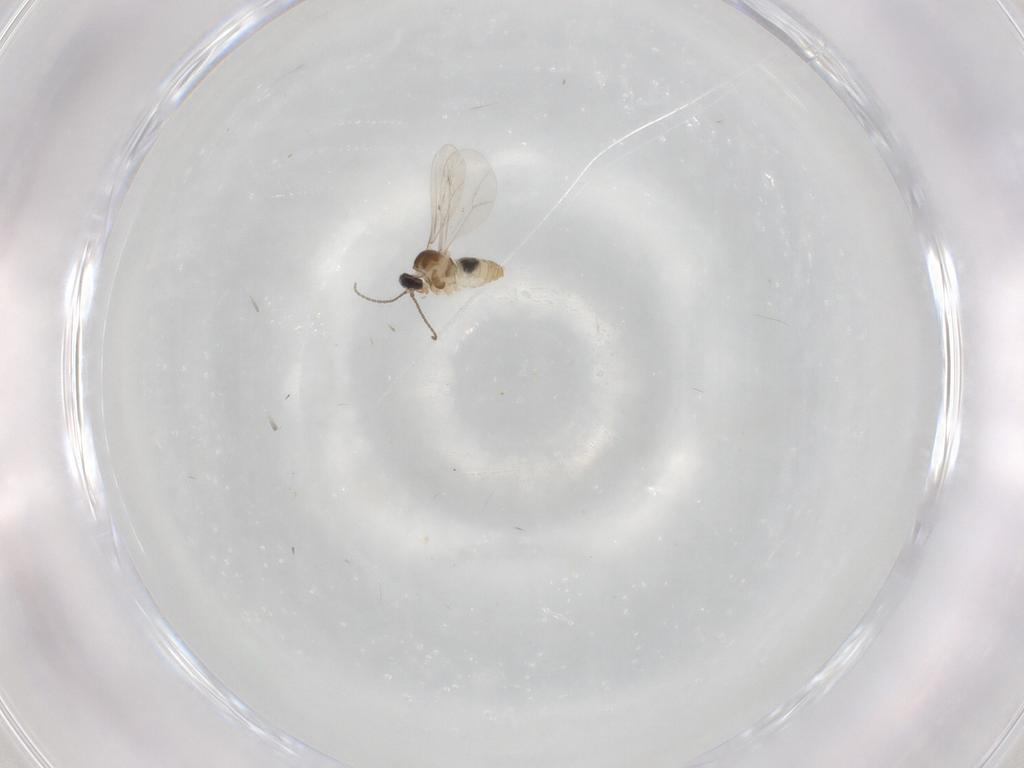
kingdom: Animalia
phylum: Arthropoda
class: Insecta
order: Diptera
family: Cecidomyiidae
